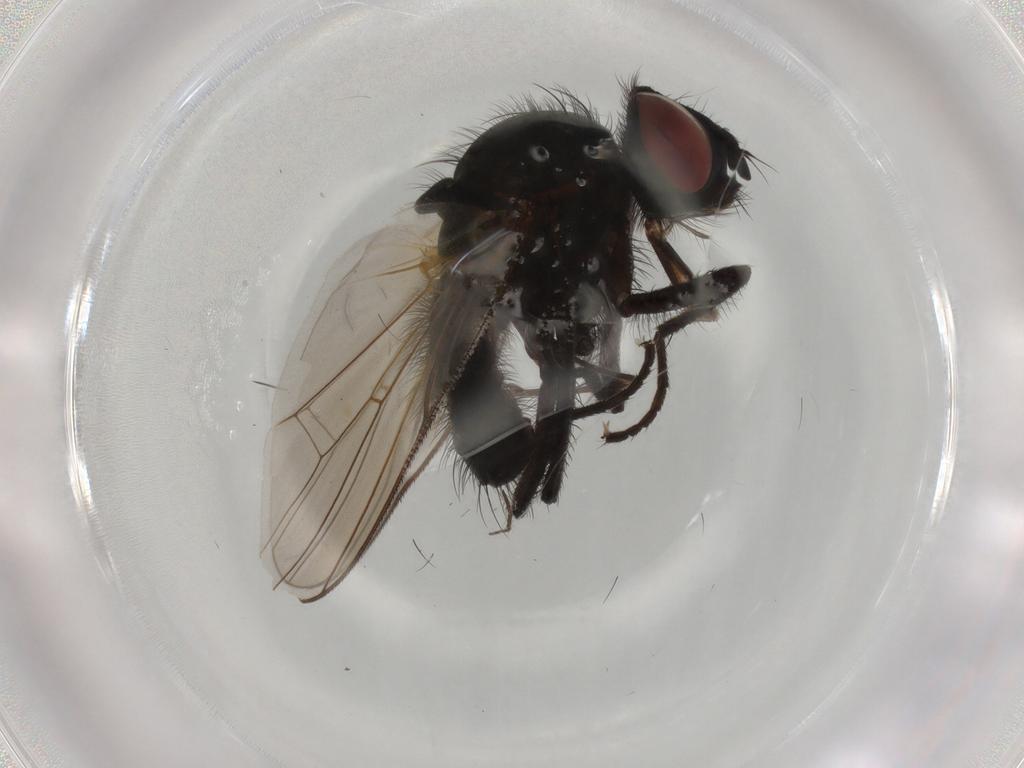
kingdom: Animalia
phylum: Arthropoda
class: Insecta
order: Diptera
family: Anthomyiidae
